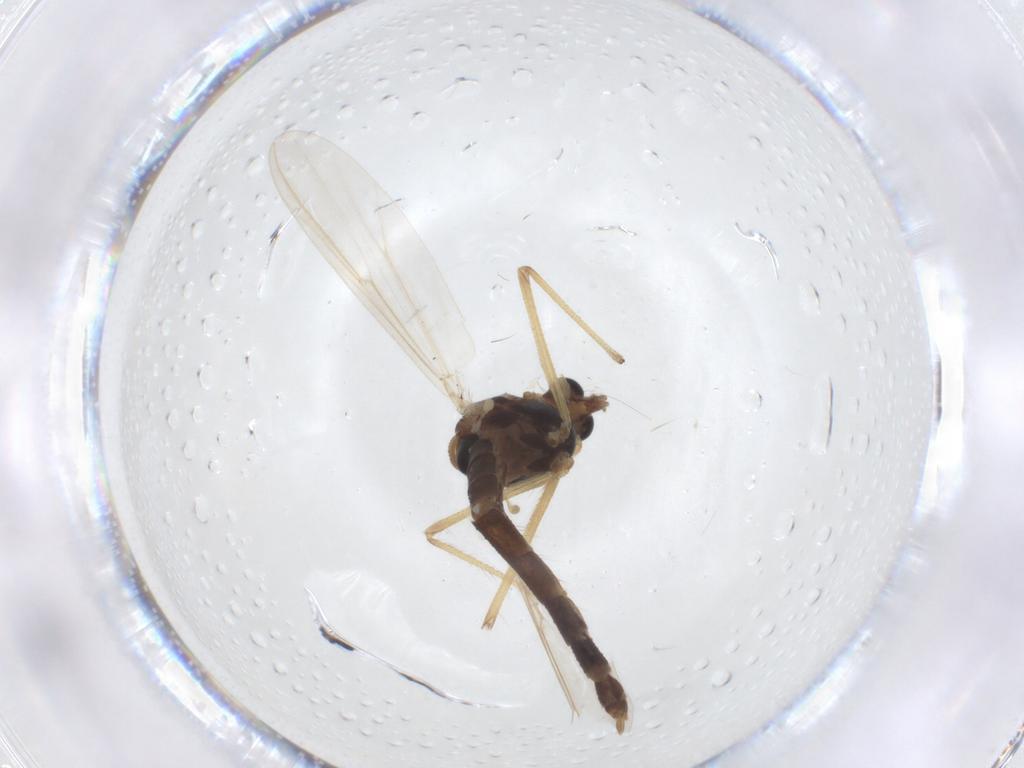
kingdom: Animalia
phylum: Arthropoda
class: Insecta
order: Diptera
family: Chironomidae
